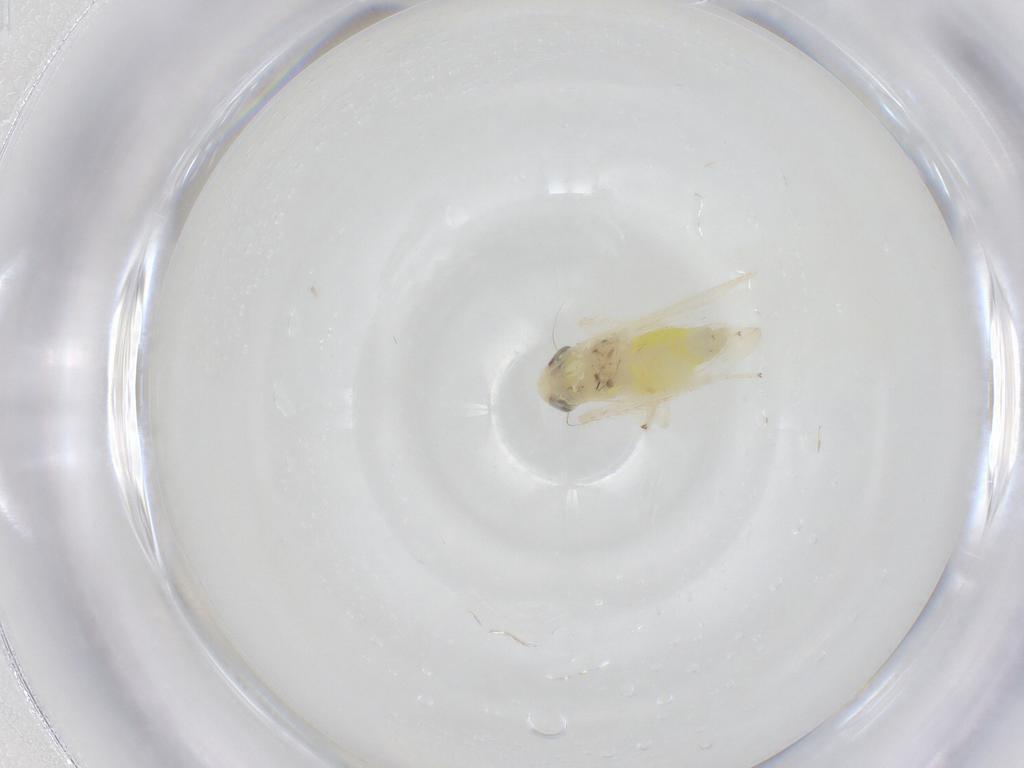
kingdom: Animalia
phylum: Arthropoda
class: Insecta
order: Hemiptera
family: Cicadellidae
